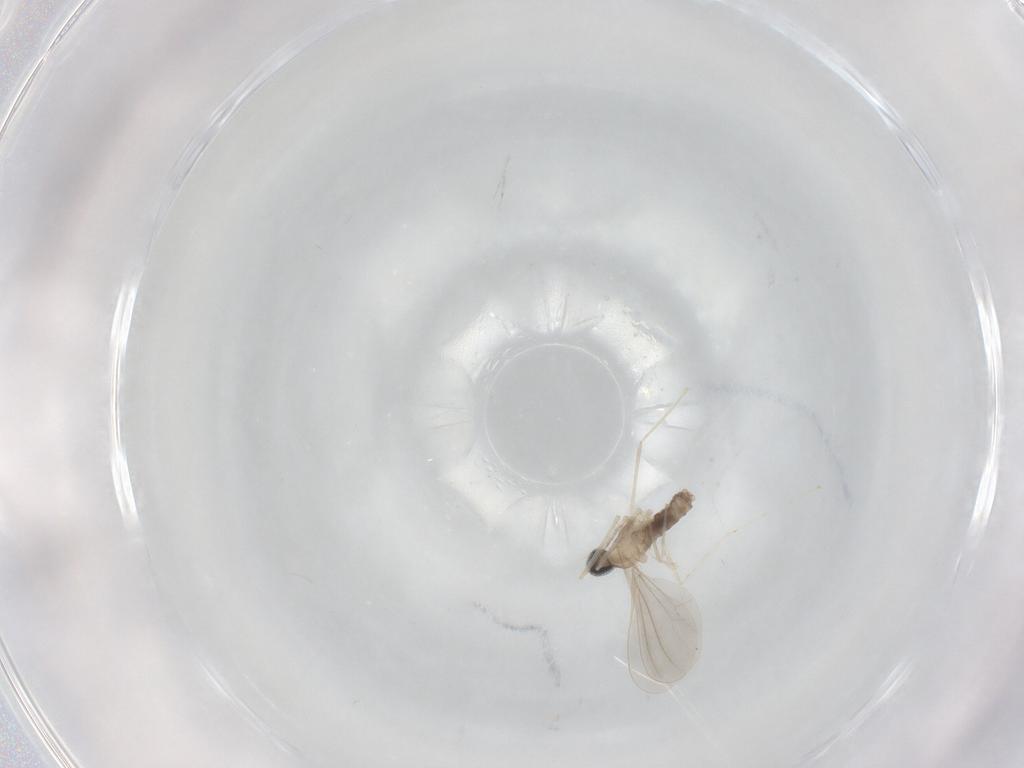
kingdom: Animalia
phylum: Arthropoda
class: Insecta
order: Diptera
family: Cecidomyiidae
